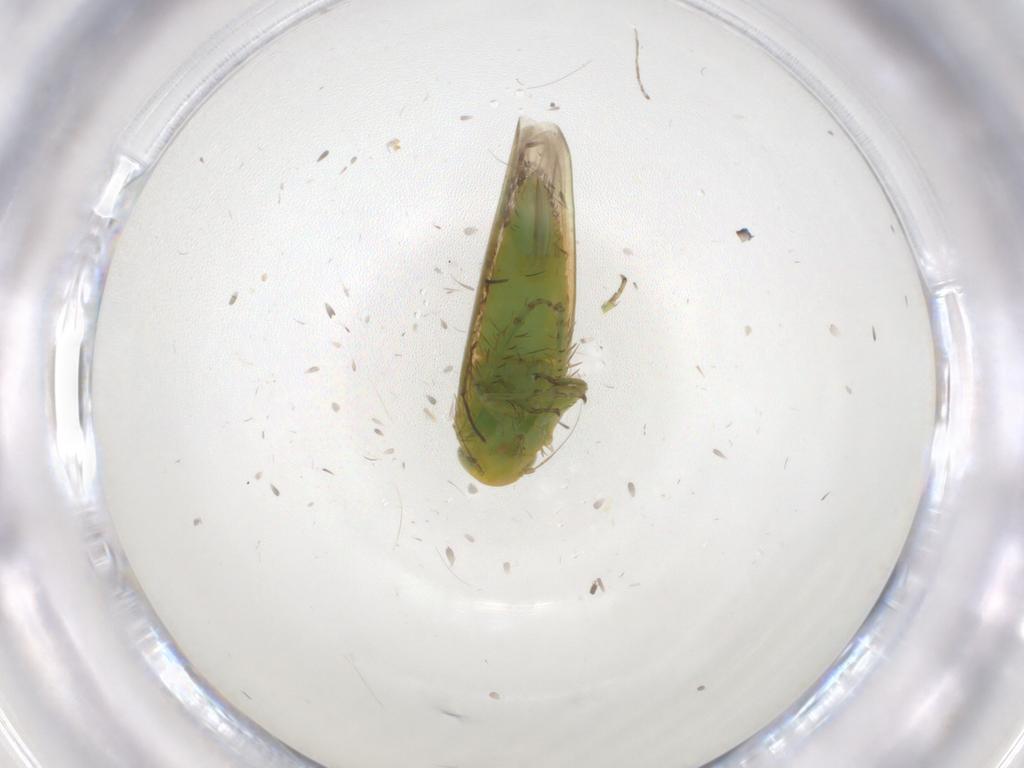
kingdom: Animalia
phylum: Arthropoda
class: Insecta
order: Hemiptera
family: Cicadellidae
